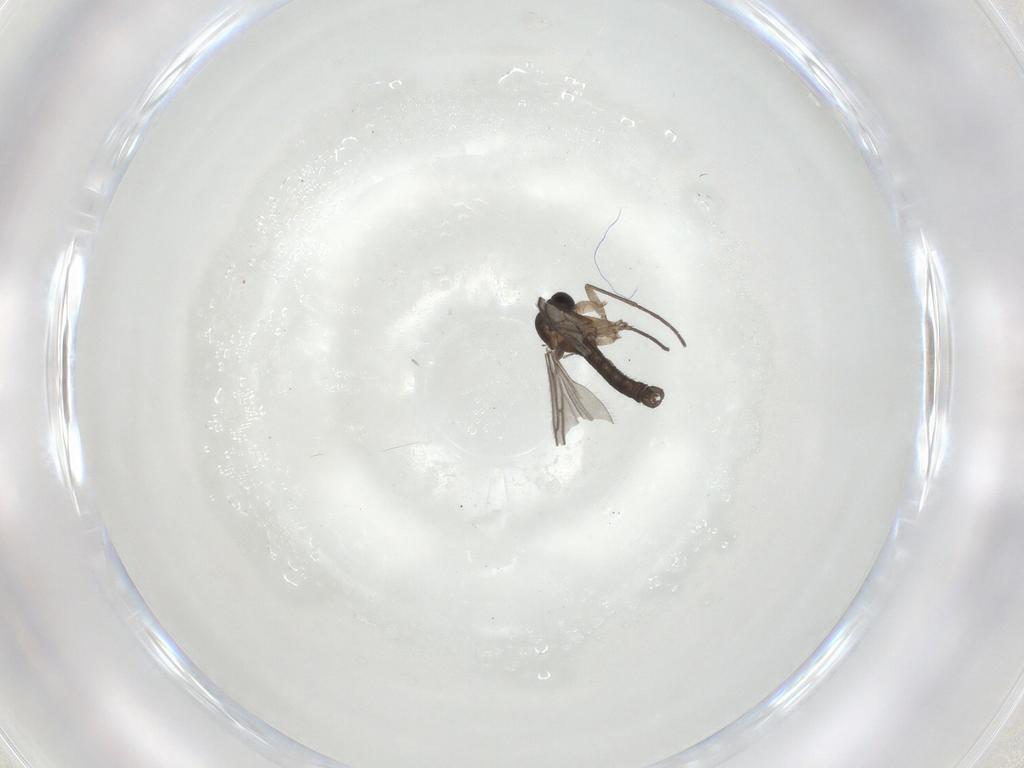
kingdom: Animalia
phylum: Arthropoda
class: Insecta
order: Diptera
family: Sciaridae
